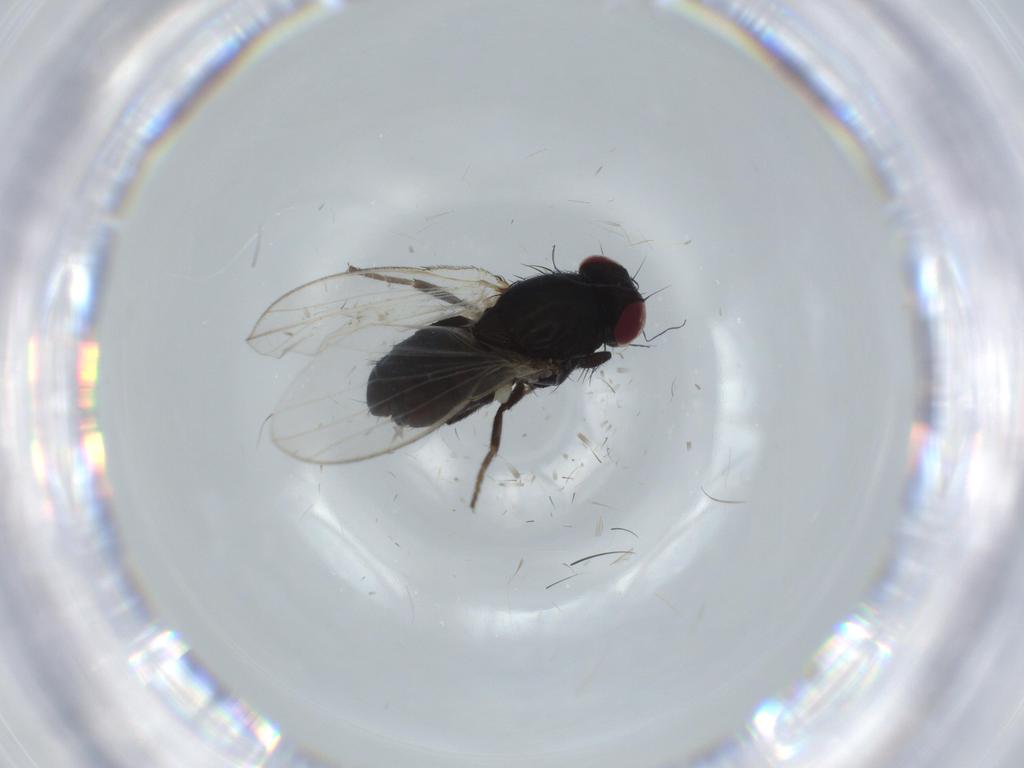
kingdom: Animalia
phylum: Arthropoda
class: Insecta
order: Diptera
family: Carnidae
